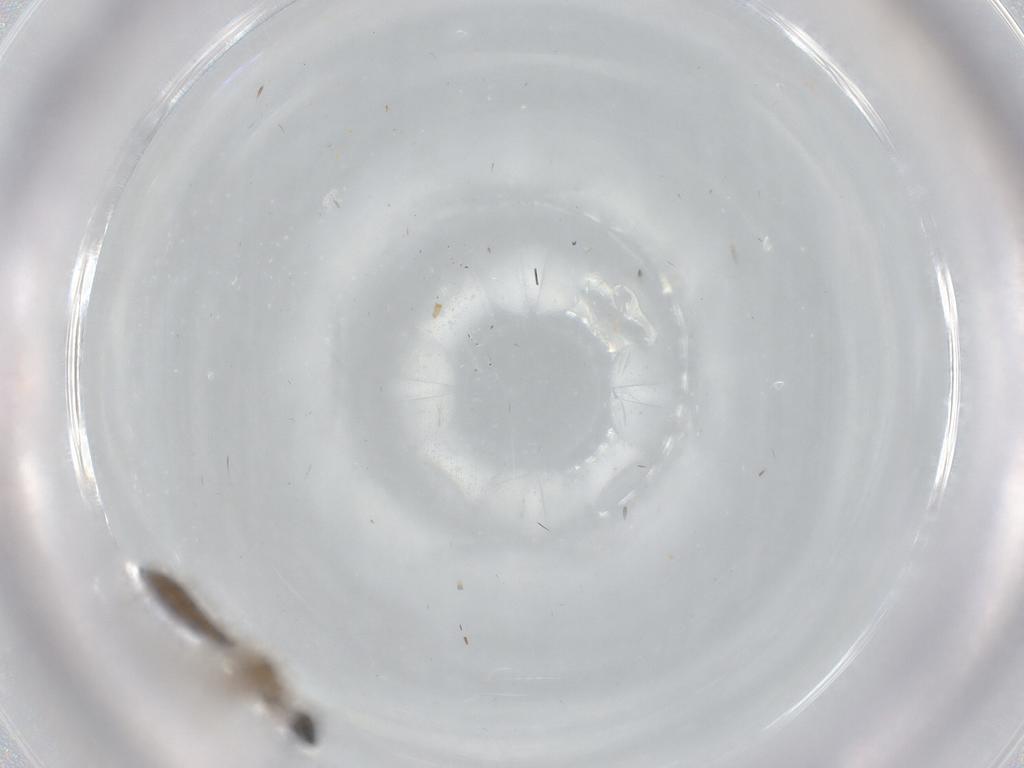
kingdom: Animalia
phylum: Arthropoda
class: Insecta
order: Diptera
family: Cecidomyiidae
